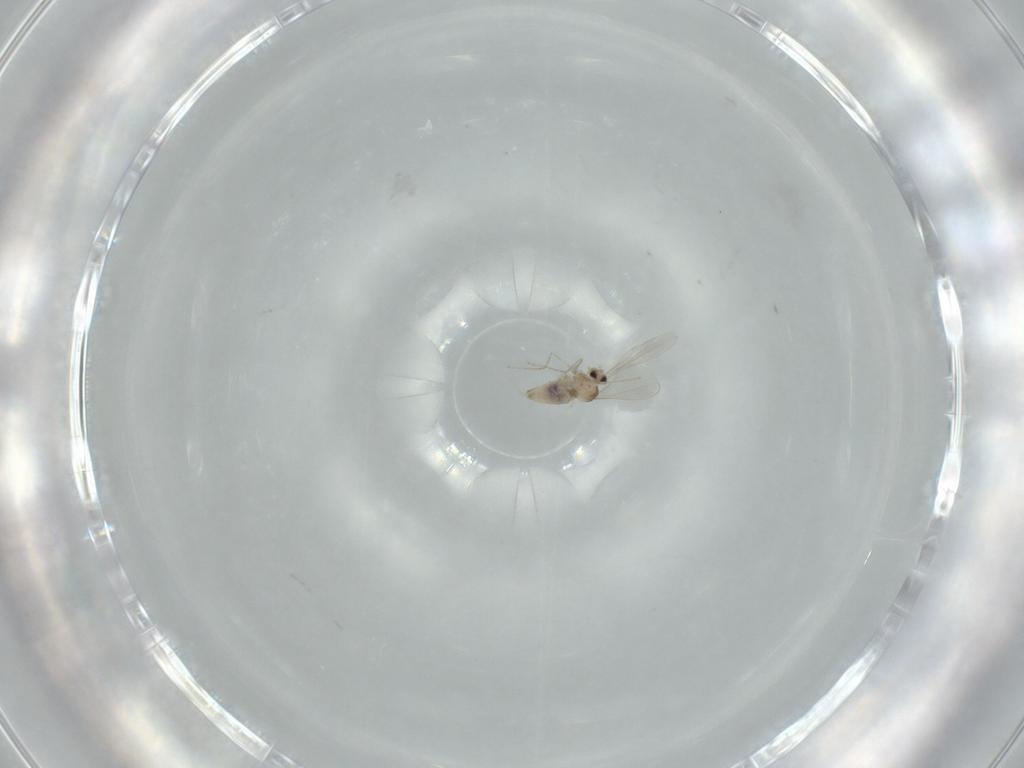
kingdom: Animalia
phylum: Arthropoda
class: Insecta
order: Diptera
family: Cecidomyiidae
